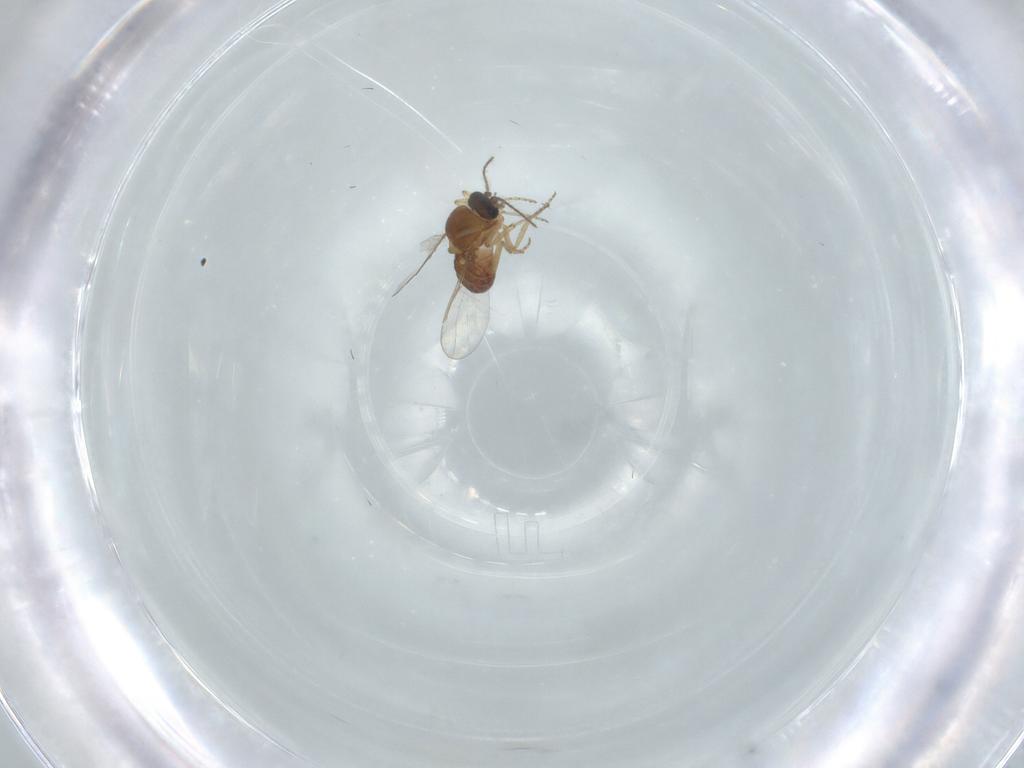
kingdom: Animalia
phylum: Arthropoda
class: Insecta
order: Diptera
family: Ceratopogonidae
